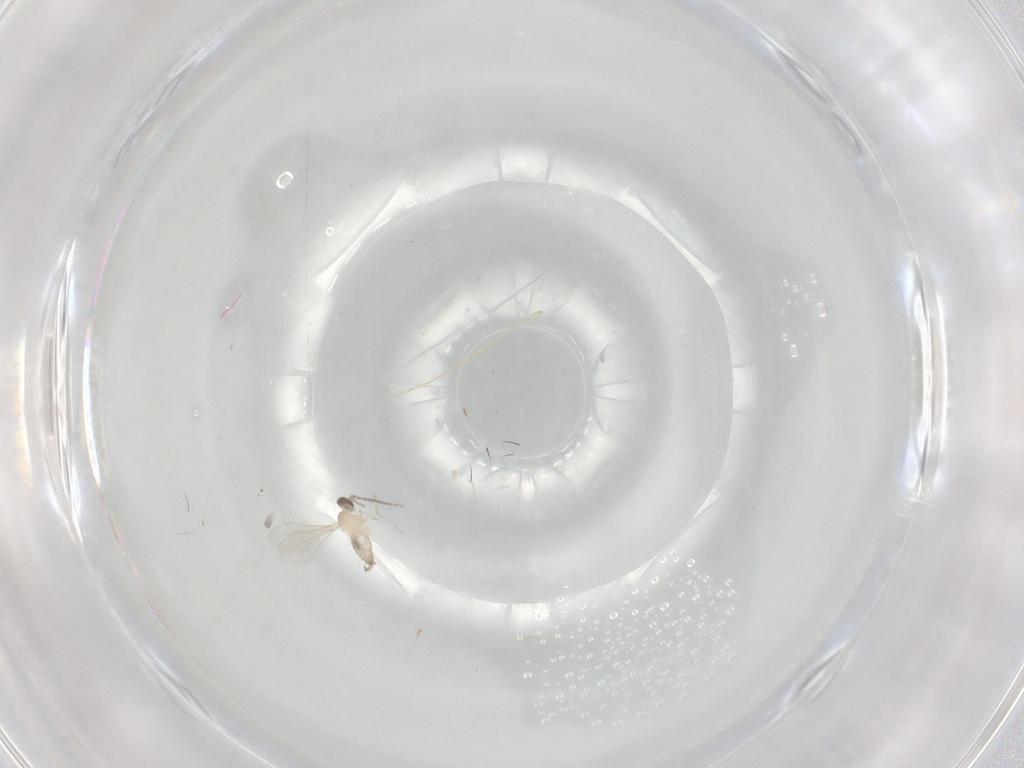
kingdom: Animalia
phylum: Arthropoda
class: Insecta
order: Diptera
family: Cecidomyiidae
